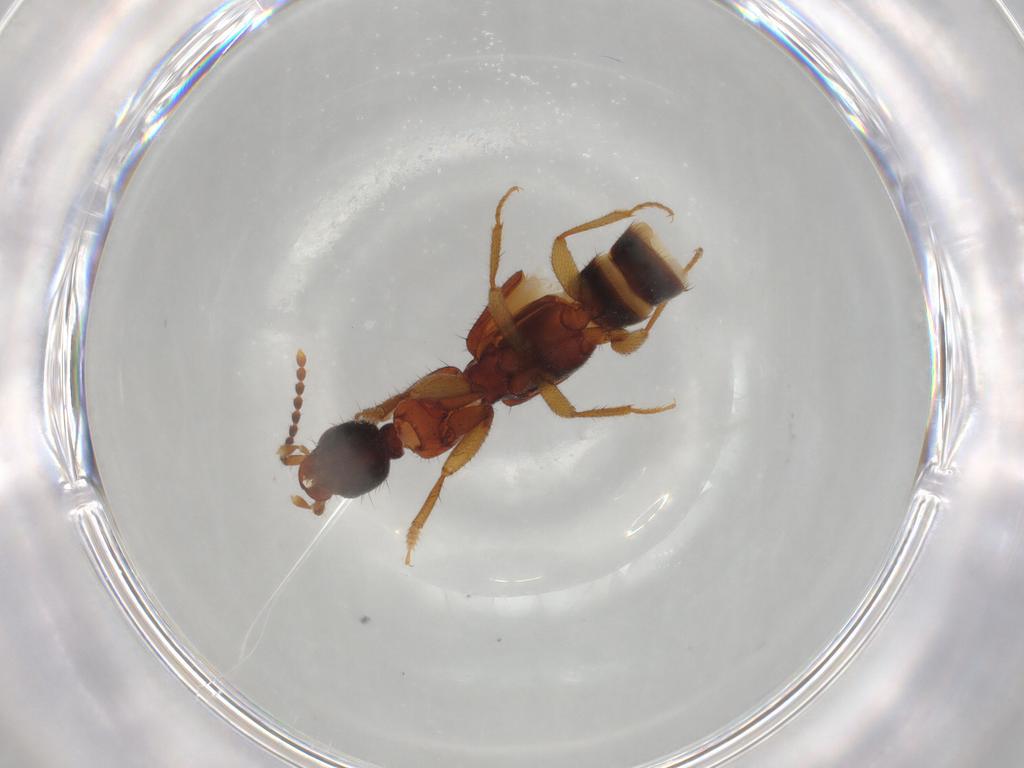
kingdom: Animalia
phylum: Arthropoda
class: Insecta
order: Coleoptera
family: Staphylinidae
